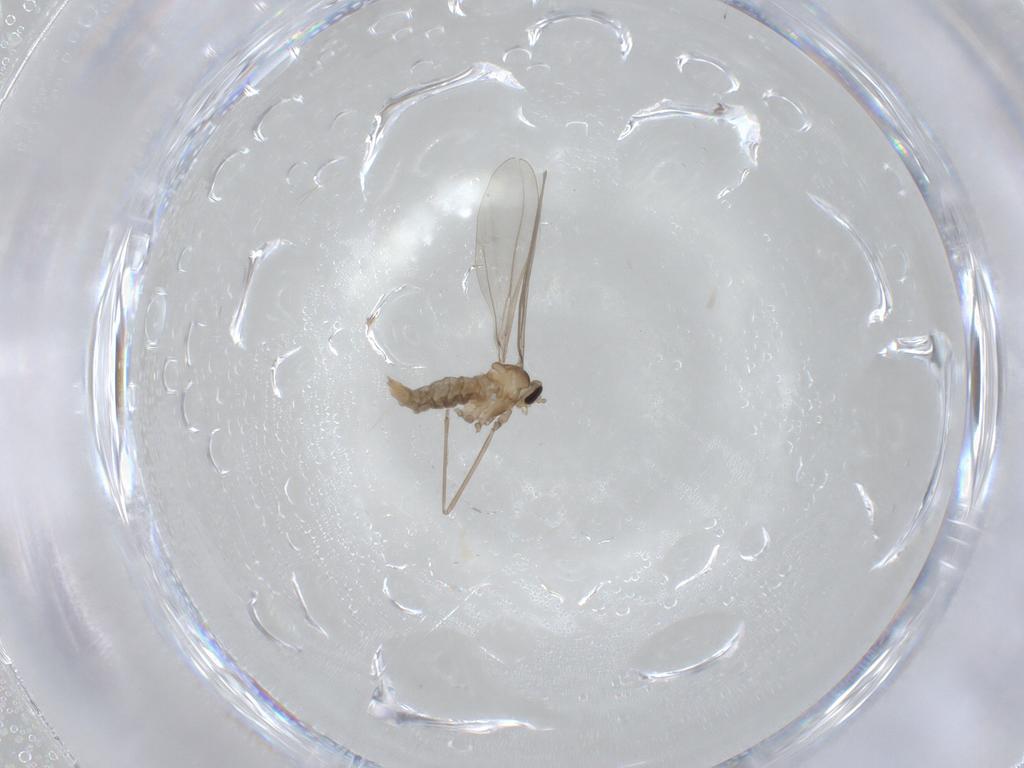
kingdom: Animalia
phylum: Arthropoda
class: Insecta
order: Diptera
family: Cecidomyiidae
